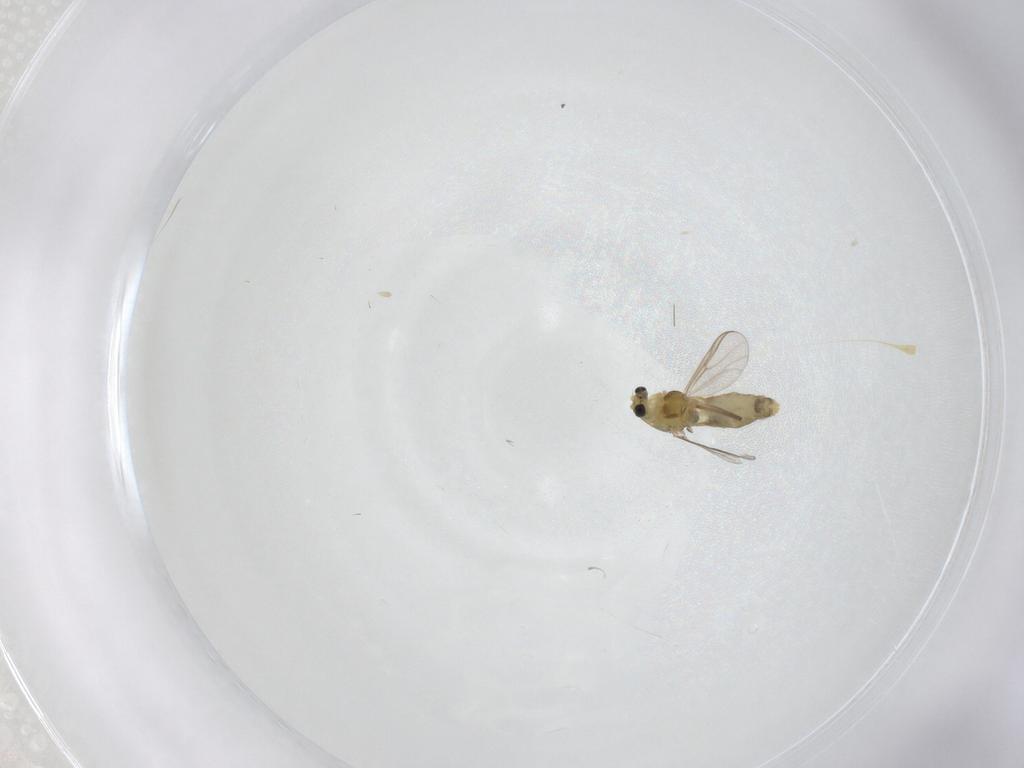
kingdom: Animalia
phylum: Arthropoda
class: Insecta
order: Diptera
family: Chironomidae
